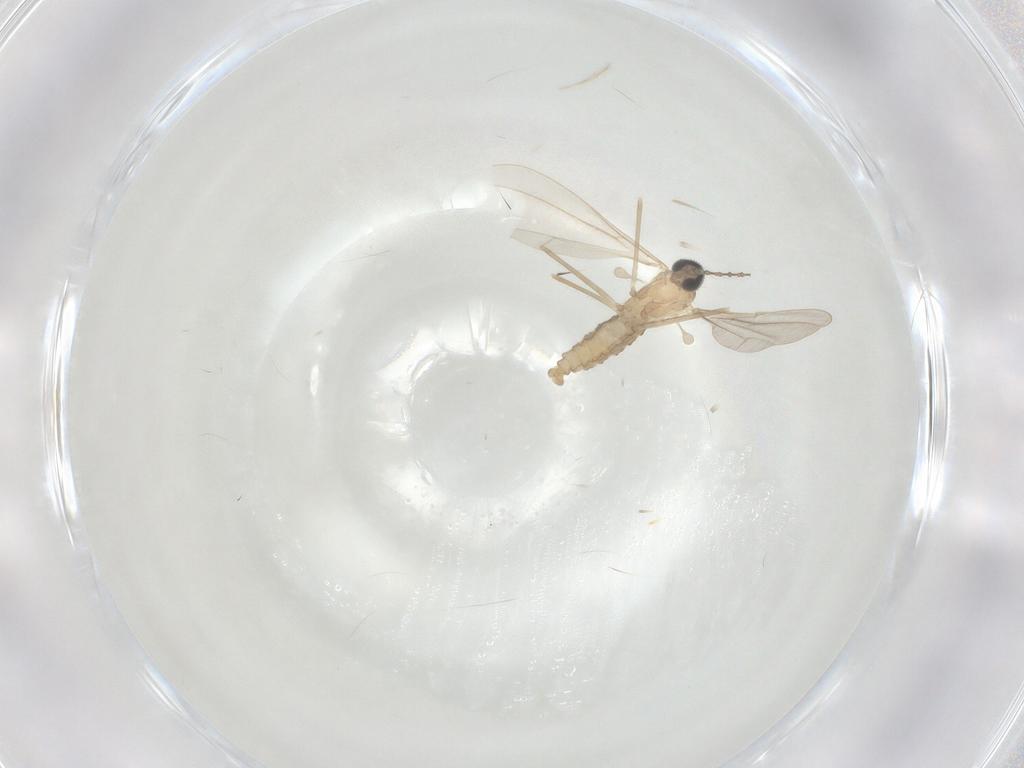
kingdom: Animalia
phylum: Arthropoda
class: Insecta
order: Diptera
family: Cecidomyiidae
